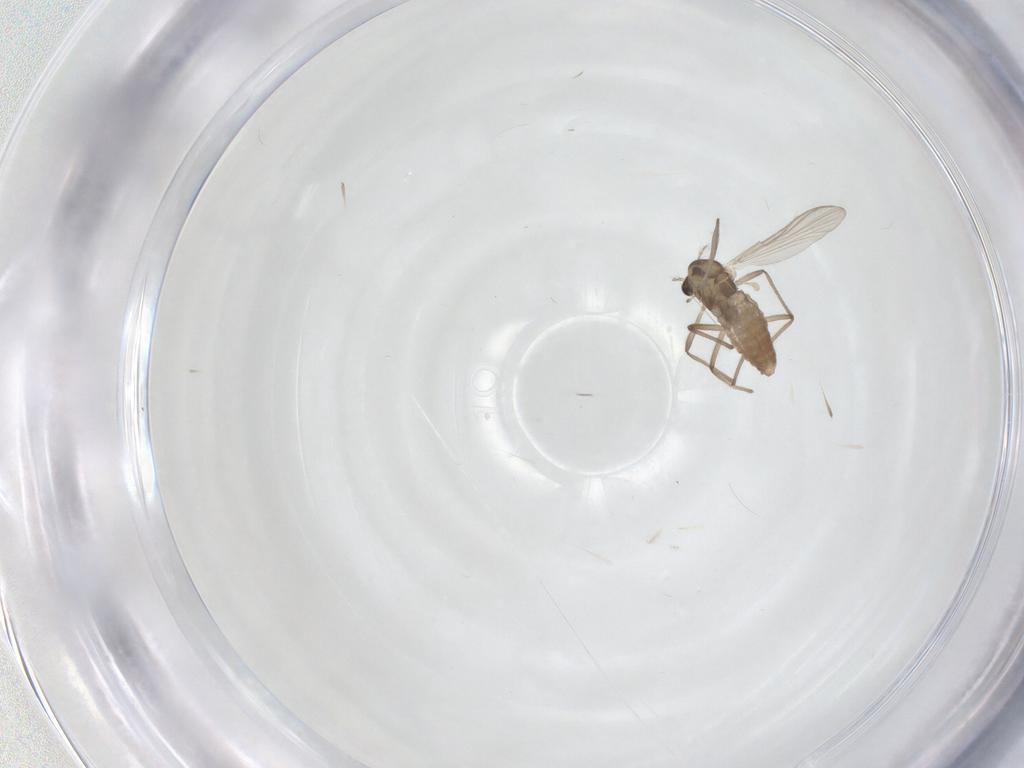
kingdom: Animalia
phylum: Arthropoda
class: Insecta
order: Diptera
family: Chironomidae
